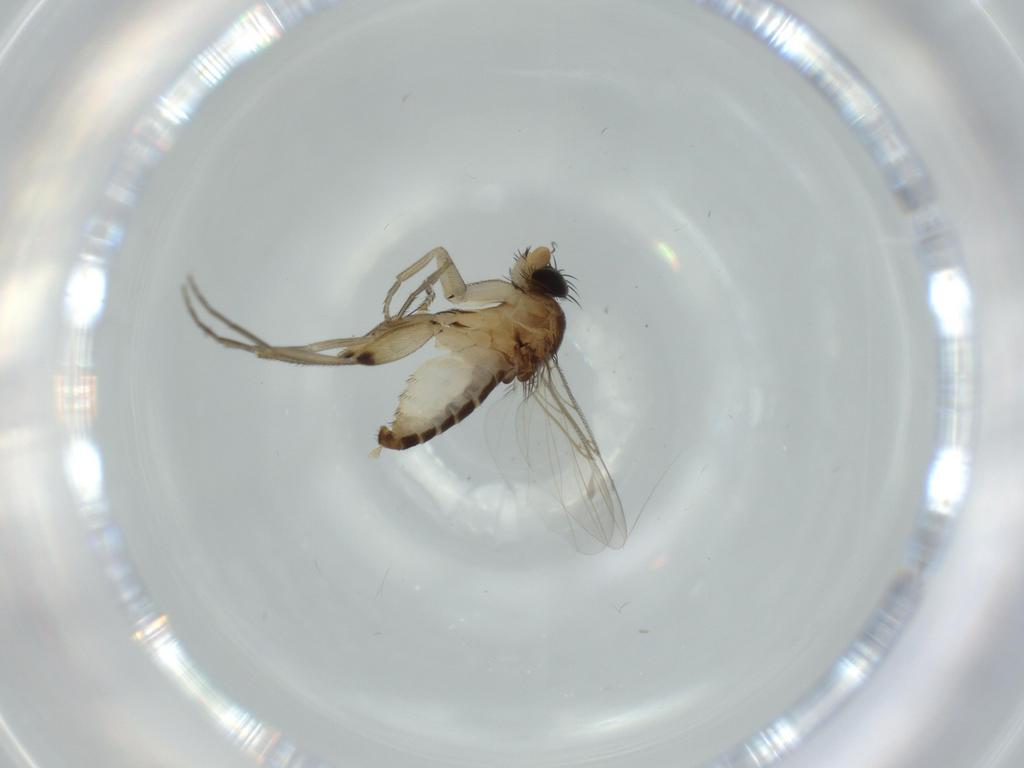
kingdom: Animalia
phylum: Arthropoda
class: Insecta
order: Diptera
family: Phoridae
